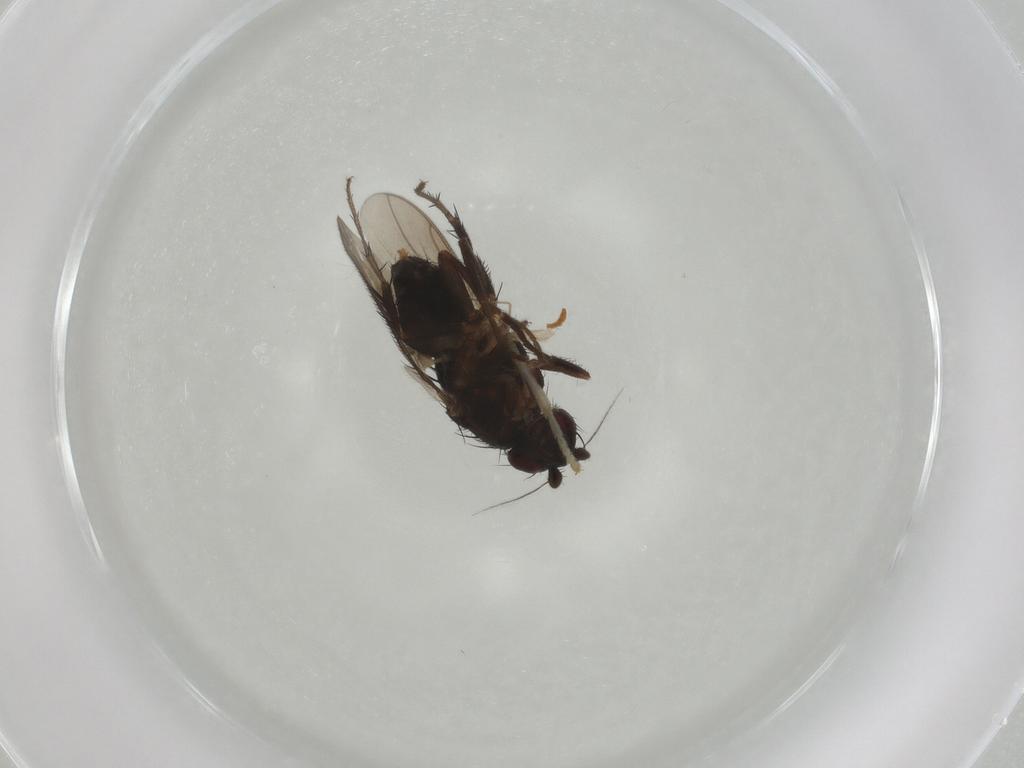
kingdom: Animalia
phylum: Arthropoda
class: Insecta
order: Diptera
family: Sphaeroceridae
